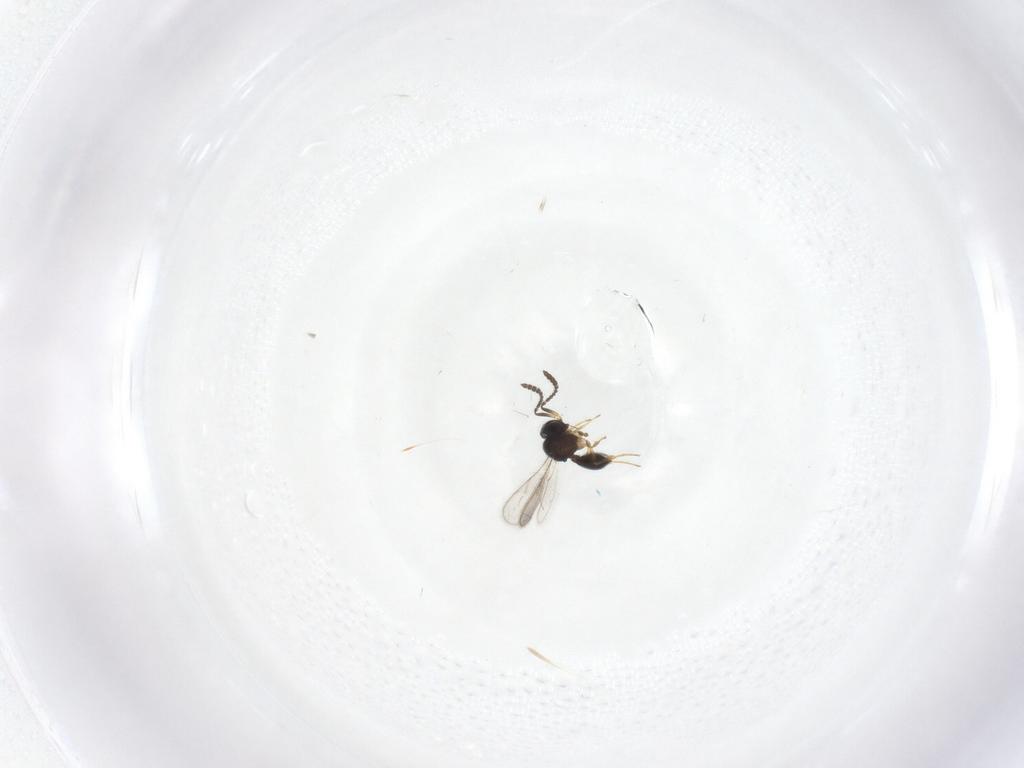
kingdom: Animalia
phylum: Arthropoda
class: Insecta
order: Hymenoptera
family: Scelionidae
